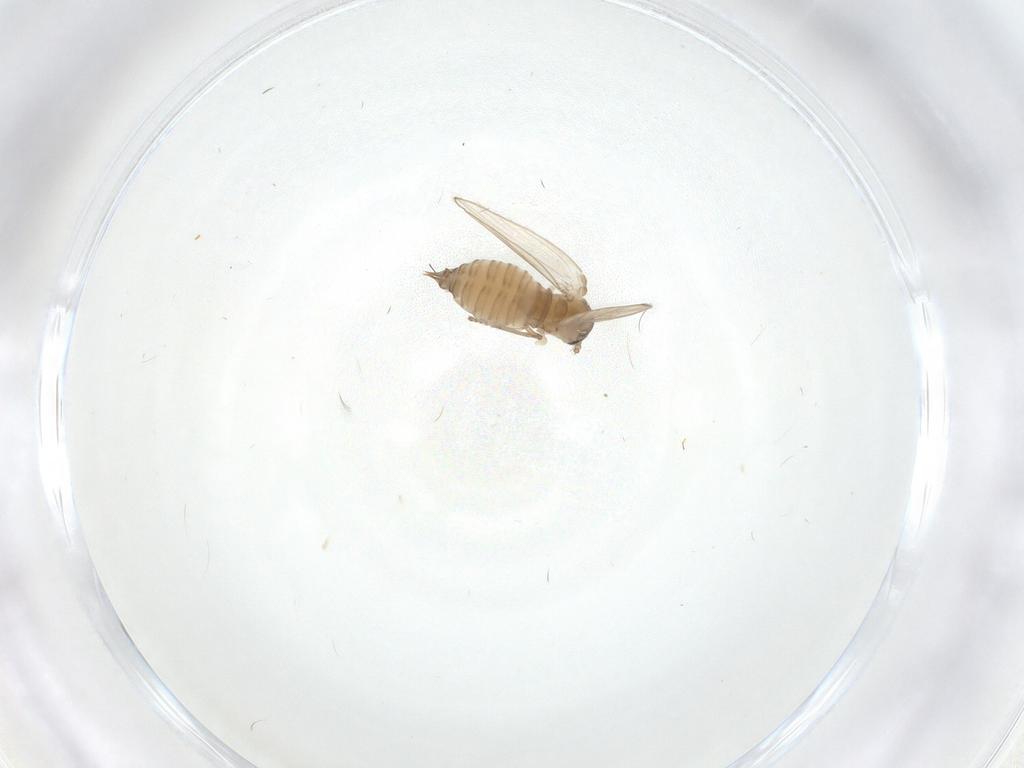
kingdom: Animalia
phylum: Arthropoda
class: Insecta
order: Diptera
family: Psychodidae
